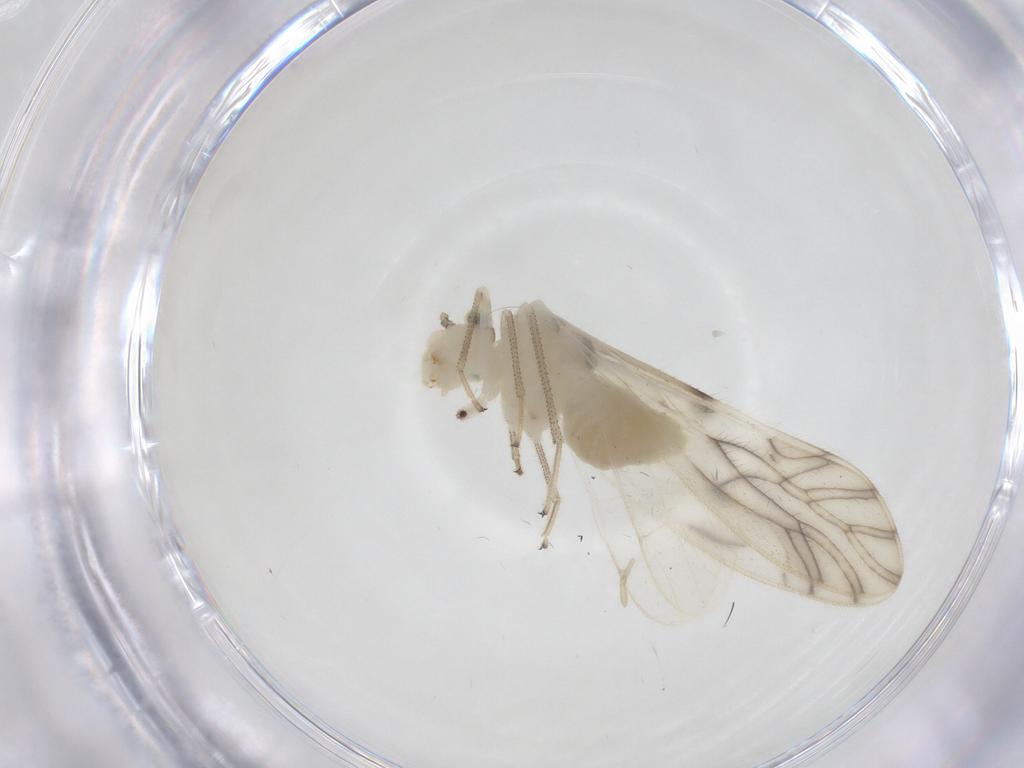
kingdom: Animalia
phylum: Arthropoda
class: Insecta
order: Psocodea
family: Caeciliusidae
